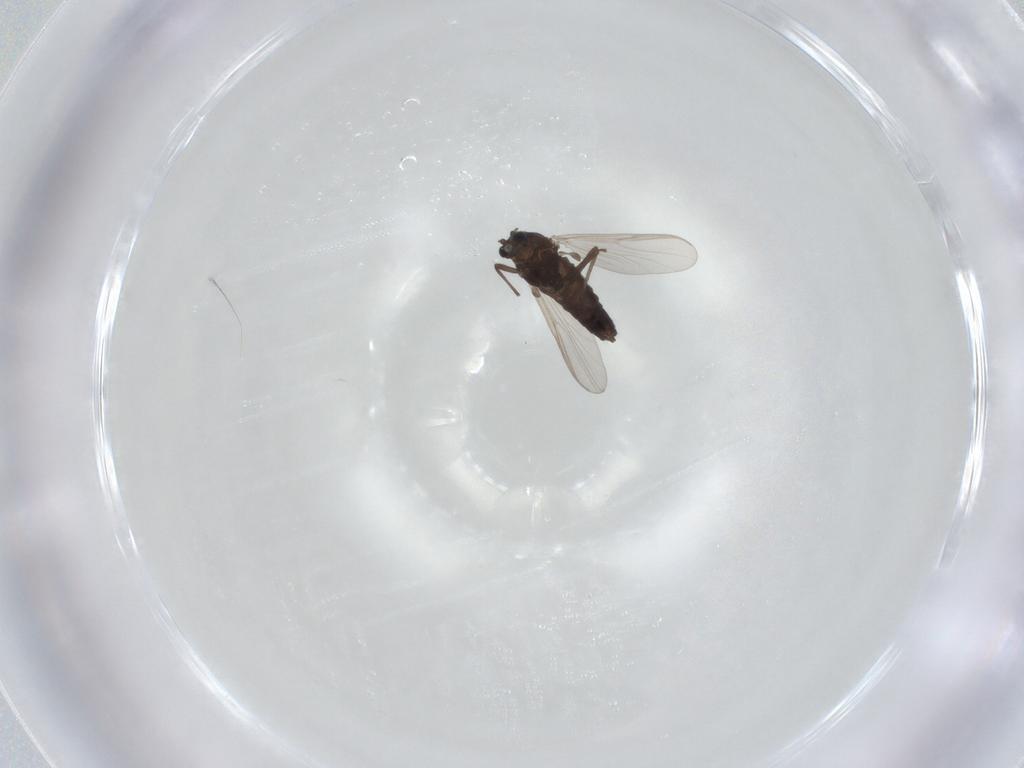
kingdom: Animalia
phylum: Arthropoda
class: Insecta
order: Diptera
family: Chironomidae
